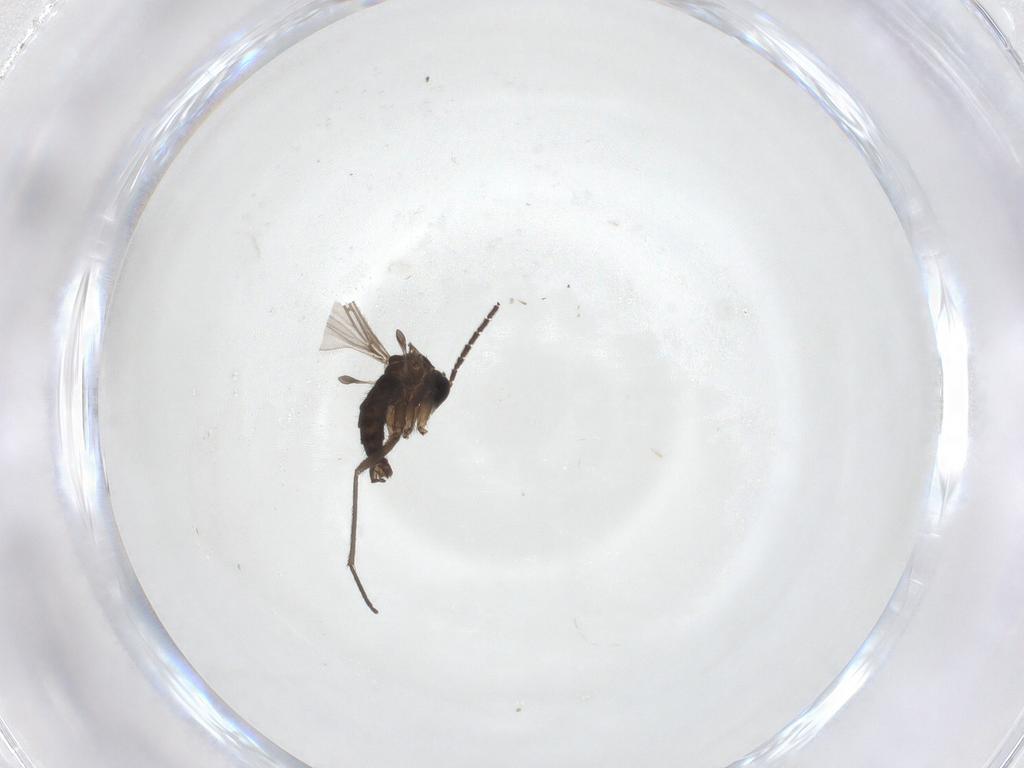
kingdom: Animalia
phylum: Arthropoda
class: Insecta
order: Diptera
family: Sciaridae
